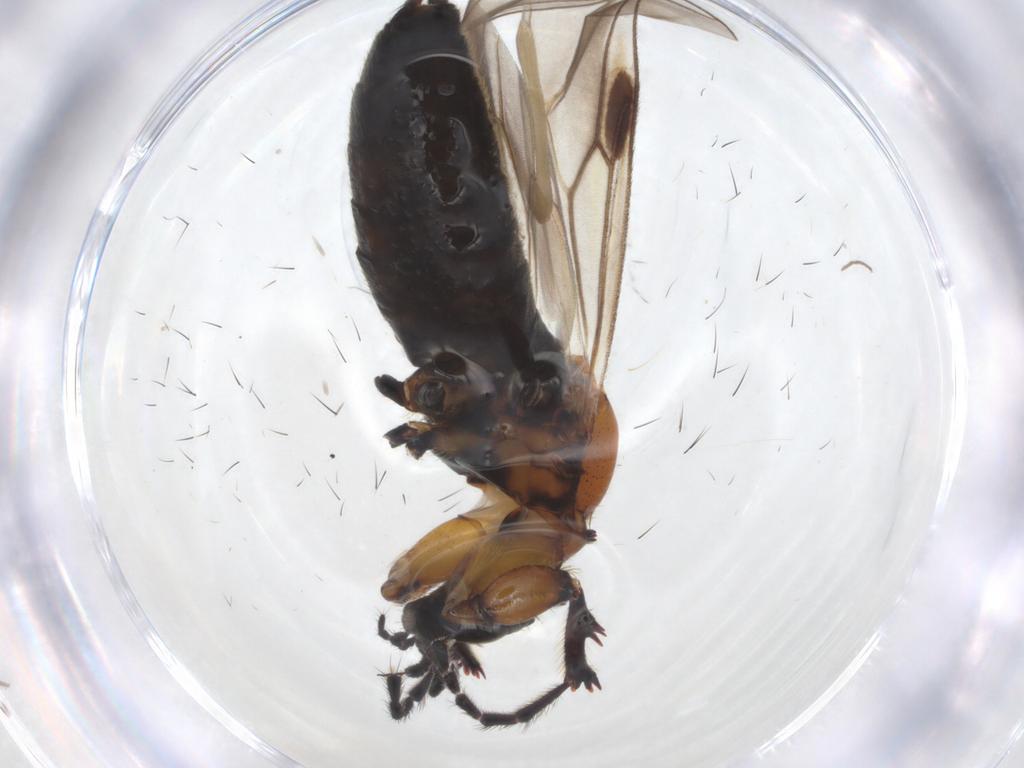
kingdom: Animalia
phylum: Arthropoda
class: Insecta
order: Diptera
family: Bibionidae
